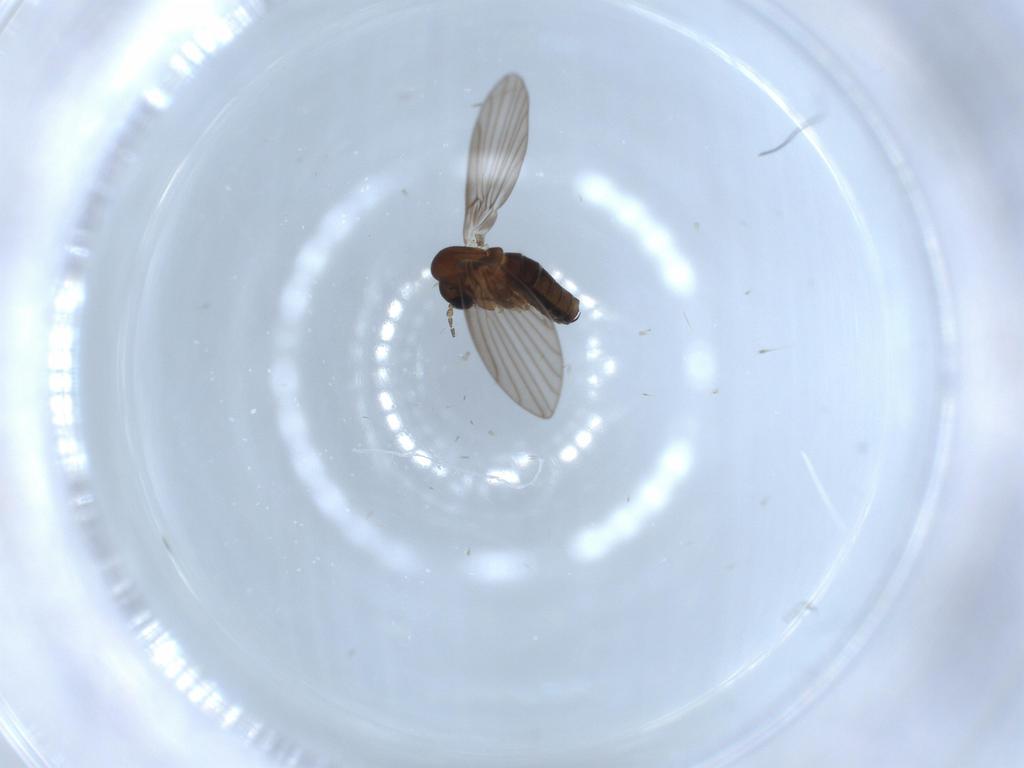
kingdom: Animalia
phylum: Arthropoda
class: Insecta
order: Diptera
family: Psychodidae
